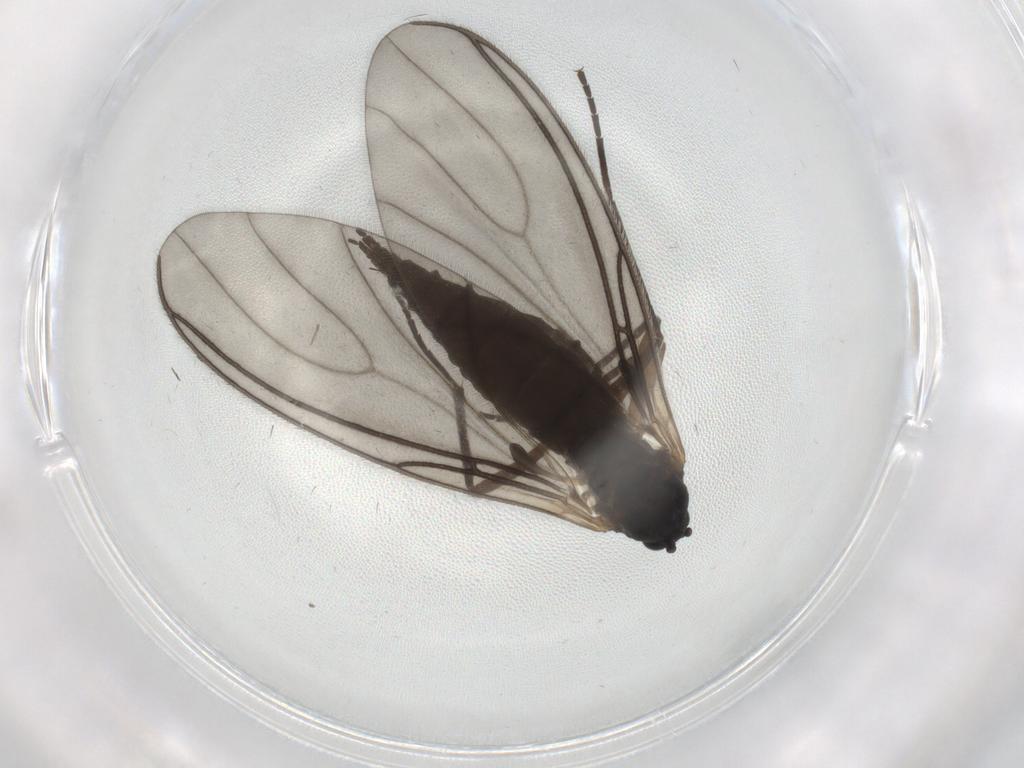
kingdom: Animalia
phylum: Arthropoda
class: Insecta
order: Diptera
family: Sciaridae
